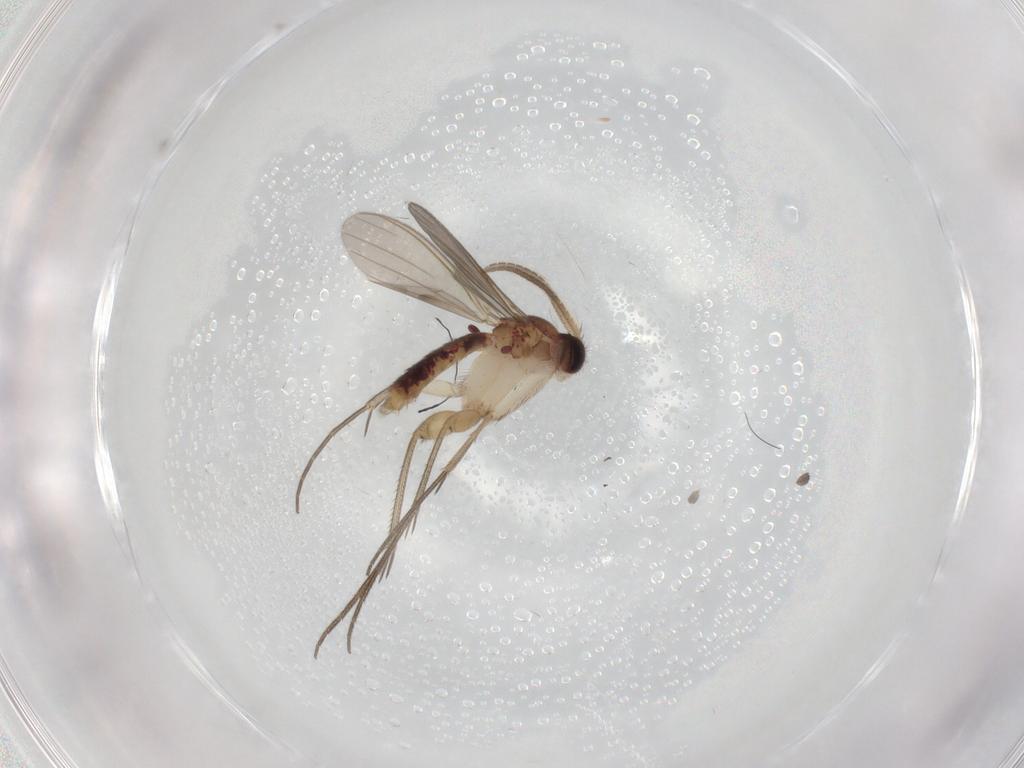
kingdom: Animalia
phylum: Arthropoda
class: Insecta
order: Diptera
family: Mycetophilidae
